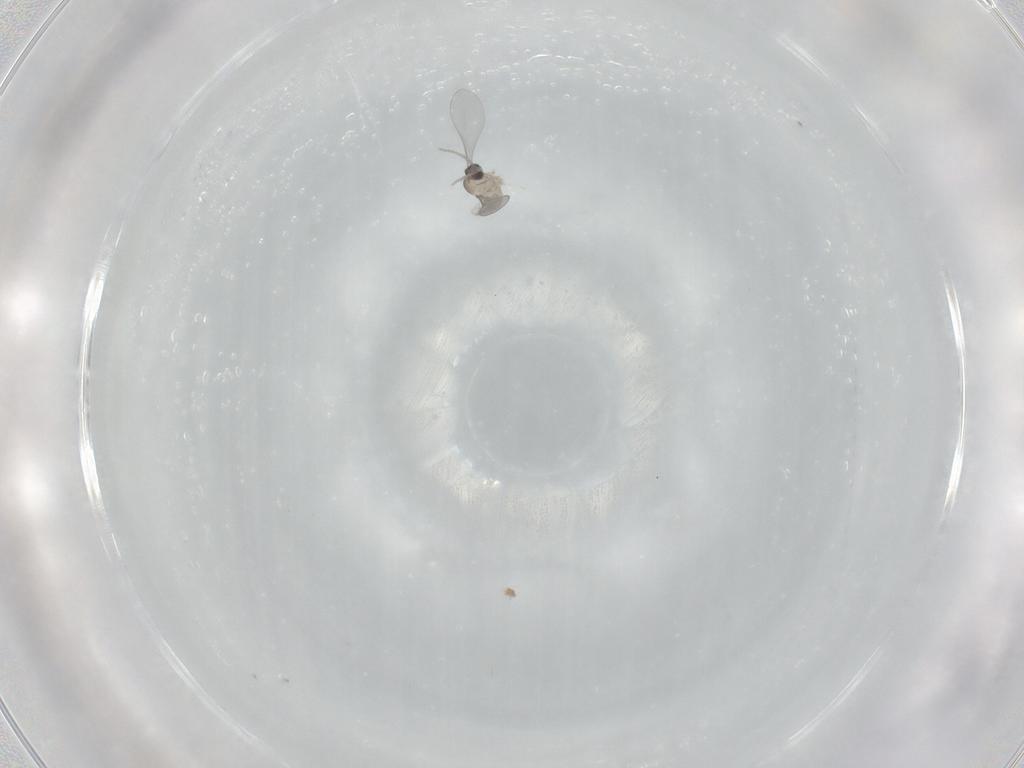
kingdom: Animalia
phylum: Arthropoda
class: Insecta
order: Diptera
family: Cecidomyiidae
